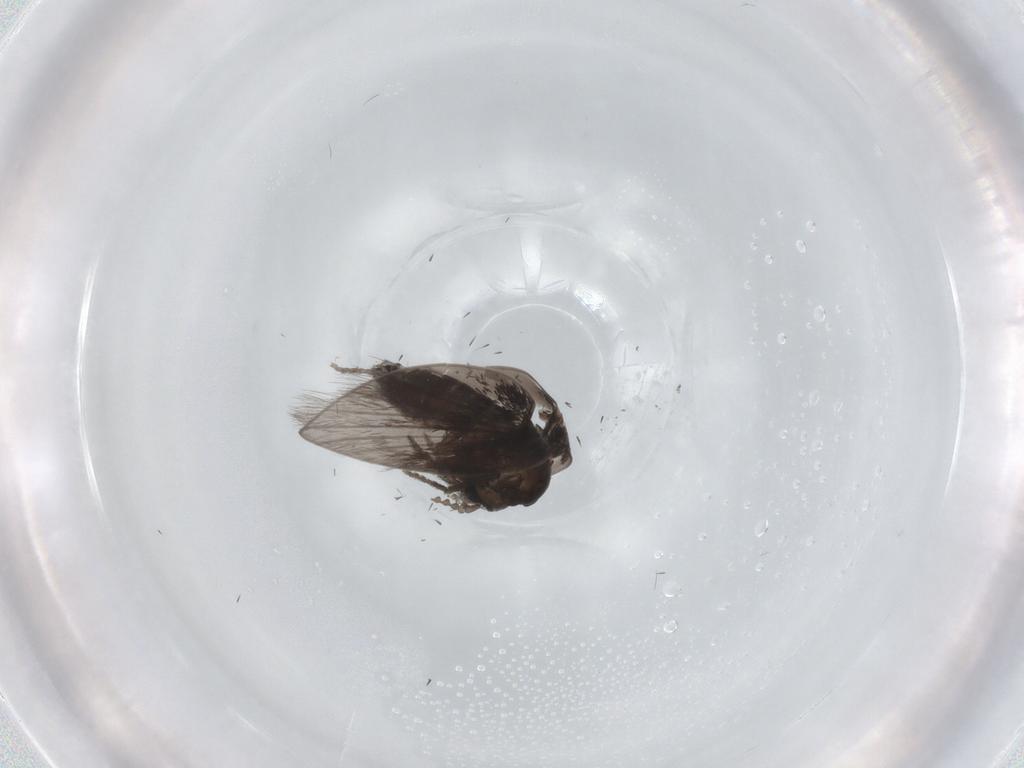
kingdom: Animalia
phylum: Arthropoda
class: Insecta
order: Diptera
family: Psychodidae
